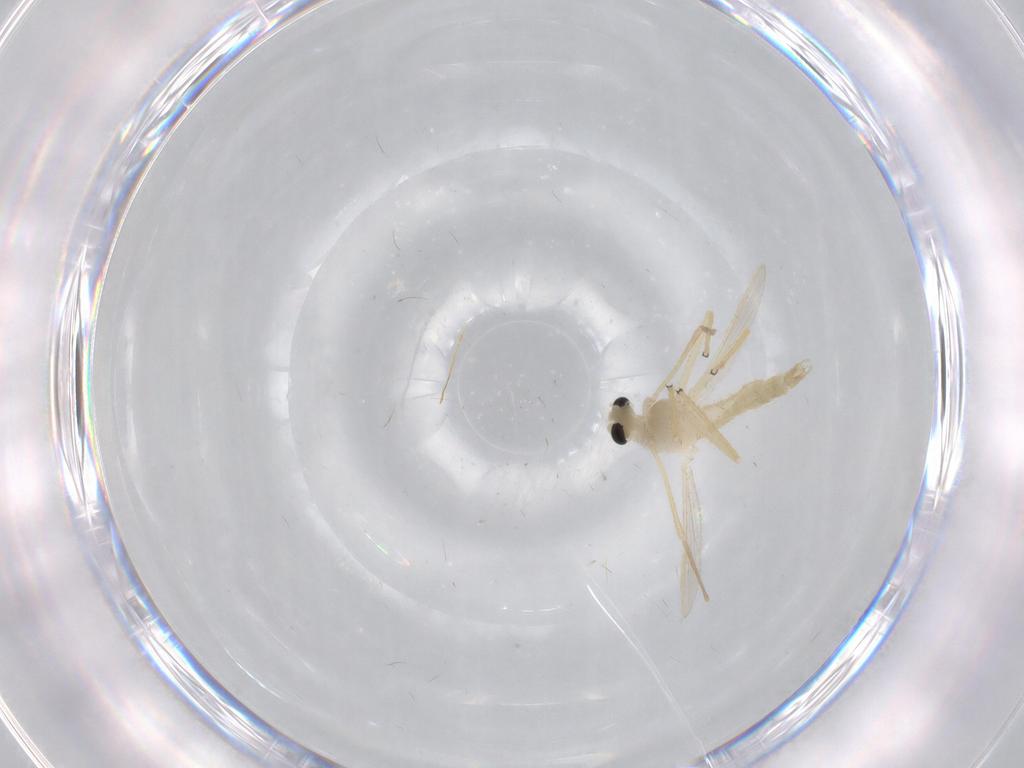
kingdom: Animalia
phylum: Arthropoda
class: Insecta
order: Diptera
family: Chironomidae
